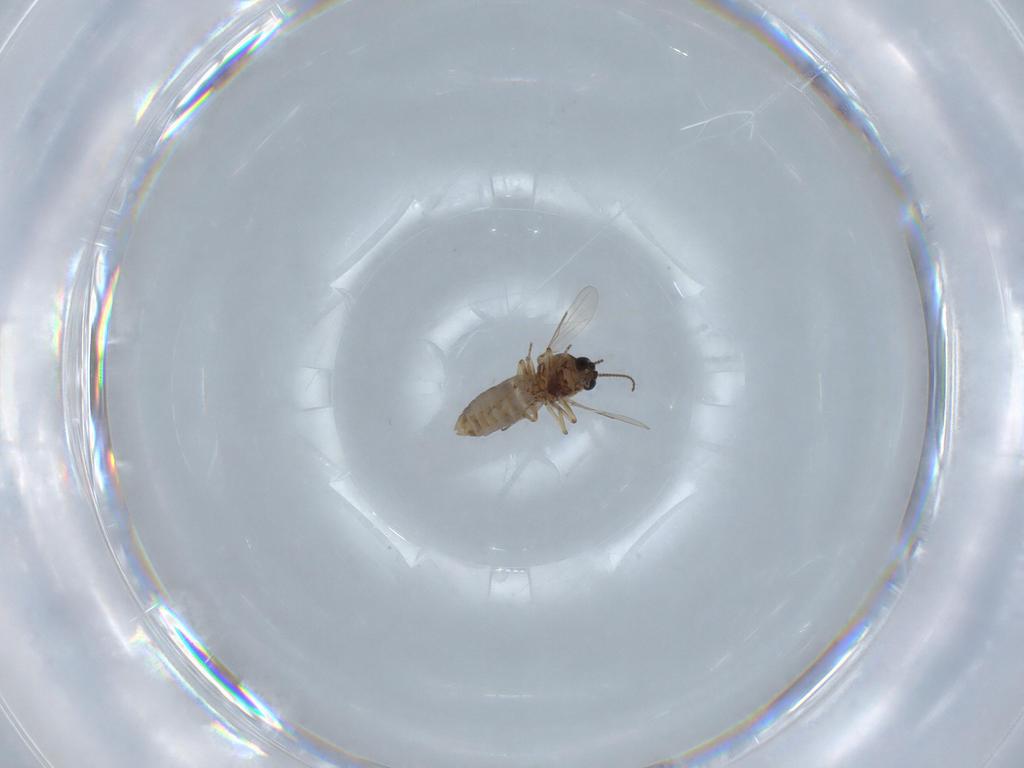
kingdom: Animalia
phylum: Arthropoda
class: Insecta
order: Diptera
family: Ceratopogonidae
